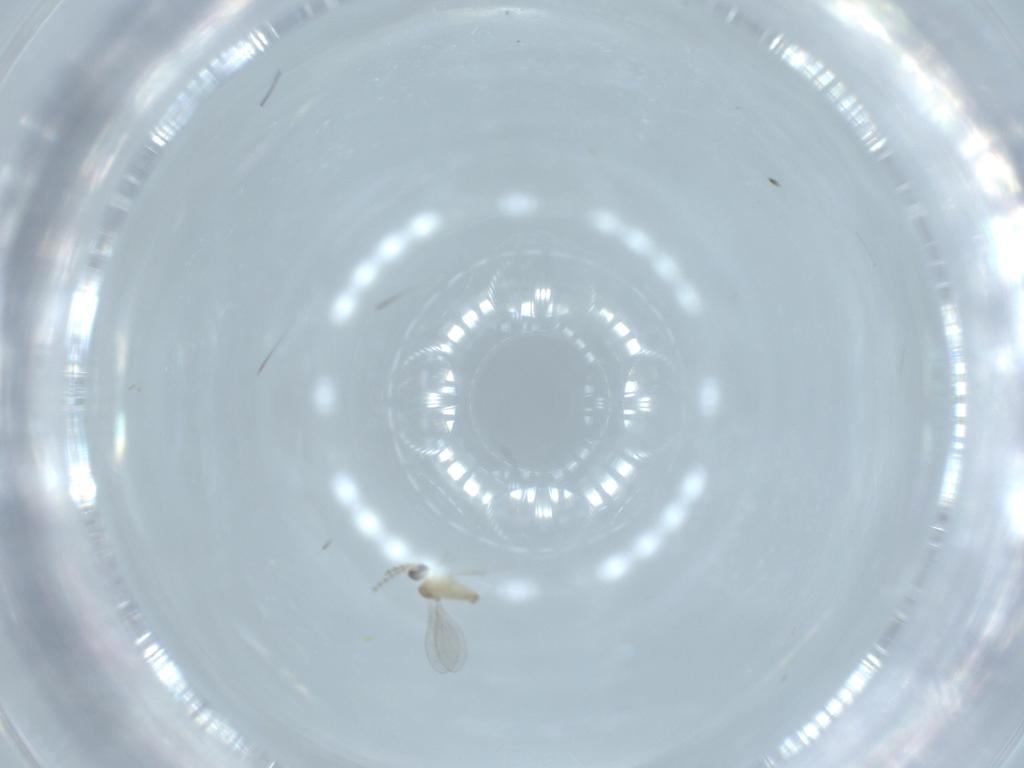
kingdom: Animalia
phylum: Arthropoda
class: Insecta
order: Diptera
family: Cecidomyiidae
